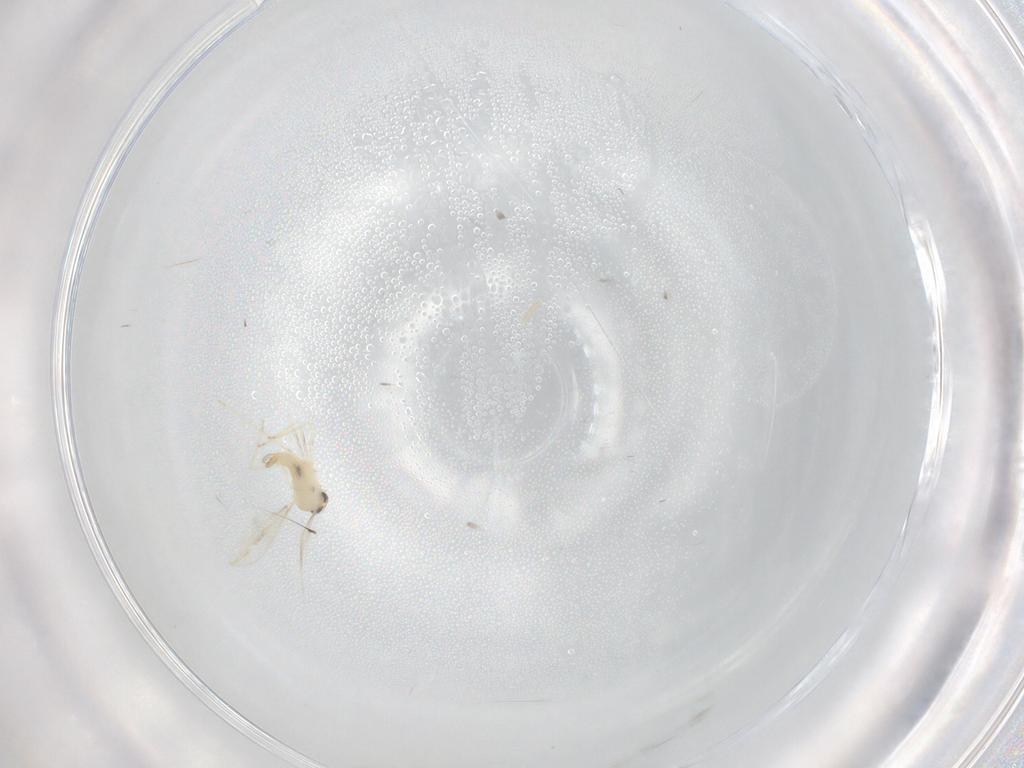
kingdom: Animalia
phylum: Arthropoda
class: Insecta
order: Diptera
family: Cecidomyiidae
